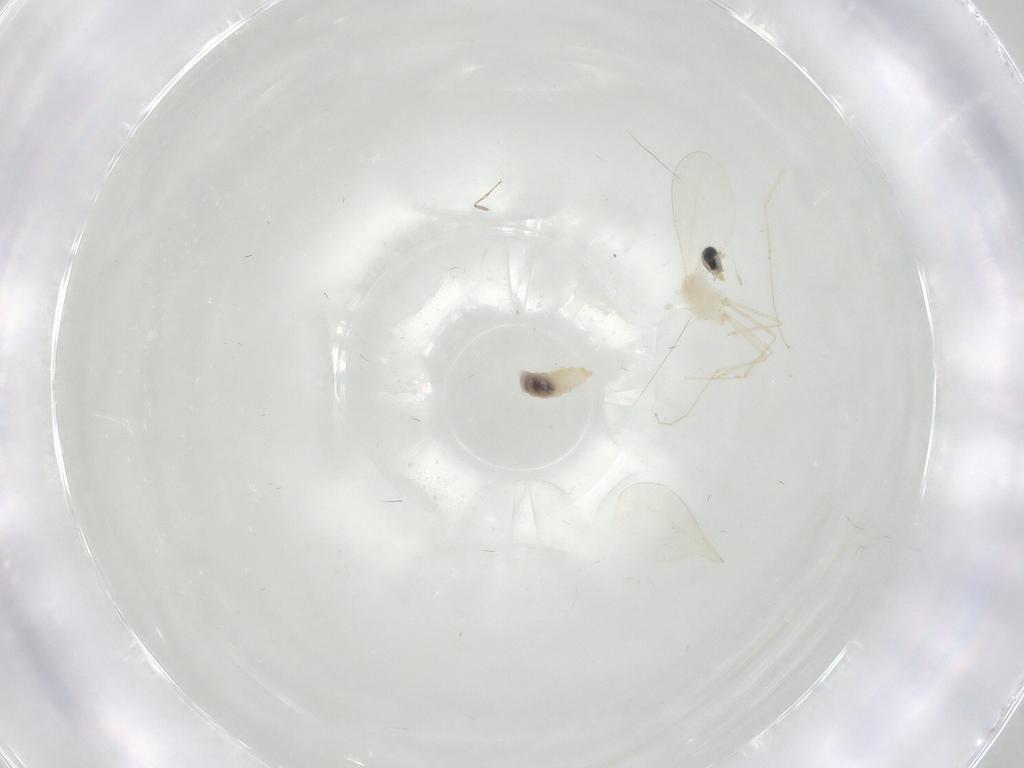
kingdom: Animalia
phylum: Arthropoda
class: Insecta
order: Diptera
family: Cecidomyiidae
